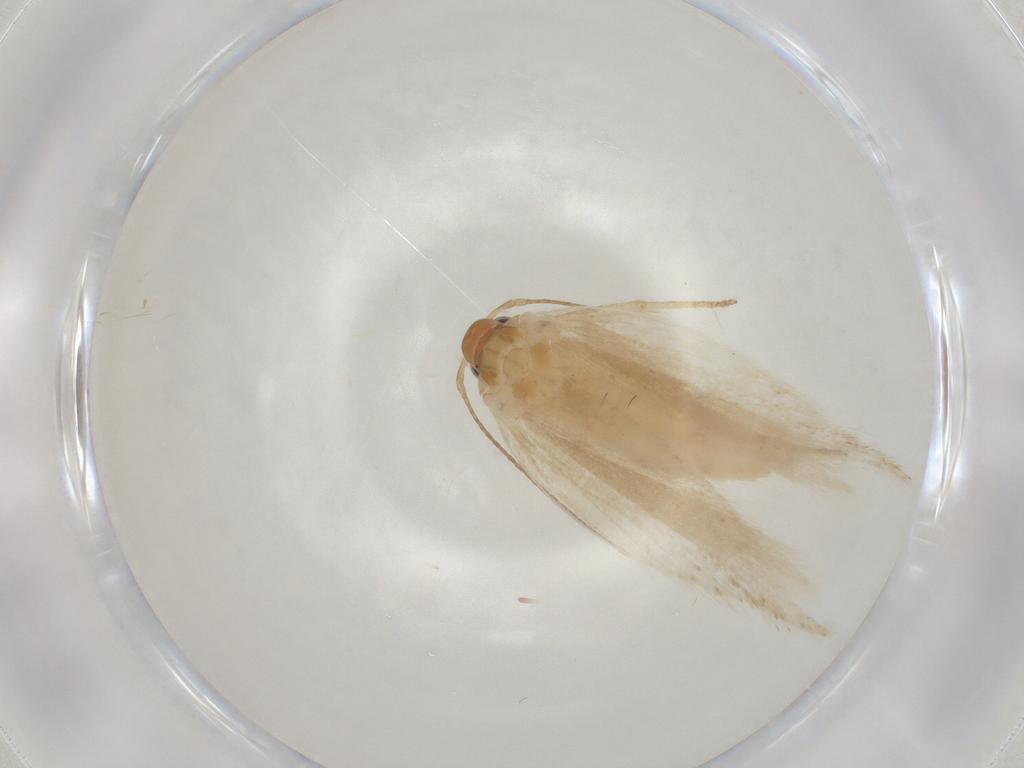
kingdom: Animalia
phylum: Arthropoda
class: Insecta
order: Lepidoptera
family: Gelechiidae
